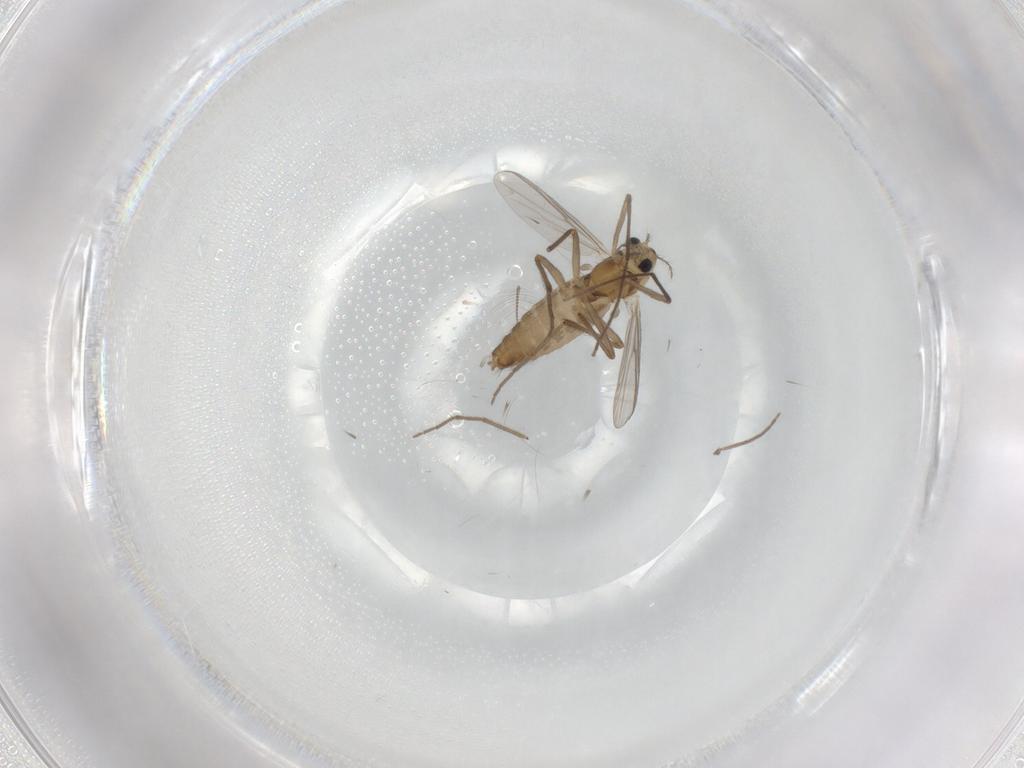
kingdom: Animalia
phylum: Arthropoda
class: Insecta
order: Diptera
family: Chironomidae
